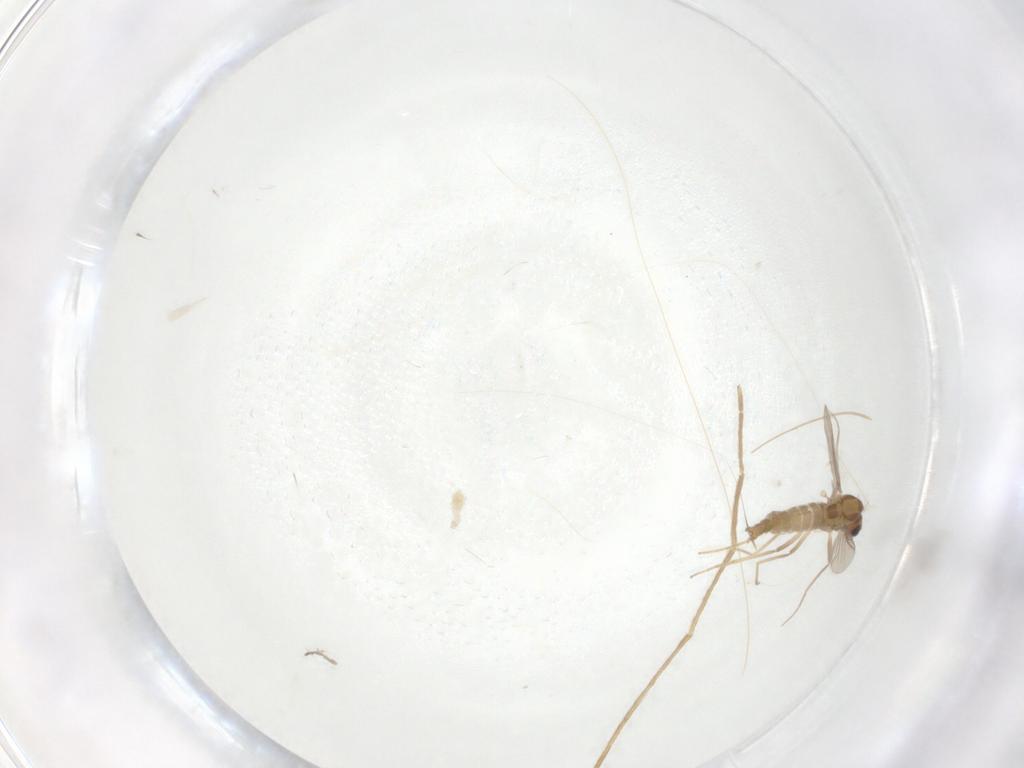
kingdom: Animalia
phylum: Arthropoda
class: Insecta
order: Diptera
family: Chironomidae
